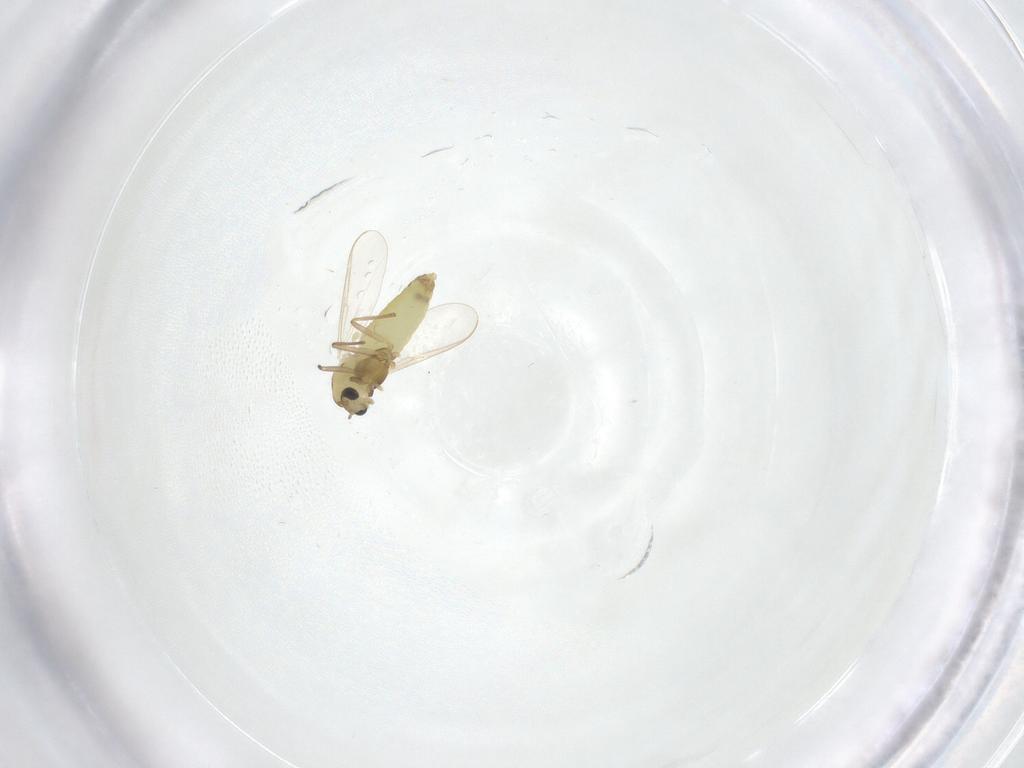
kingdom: Animalia
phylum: Arthropoda
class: Insecta
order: Diptera
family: Chironomidae
